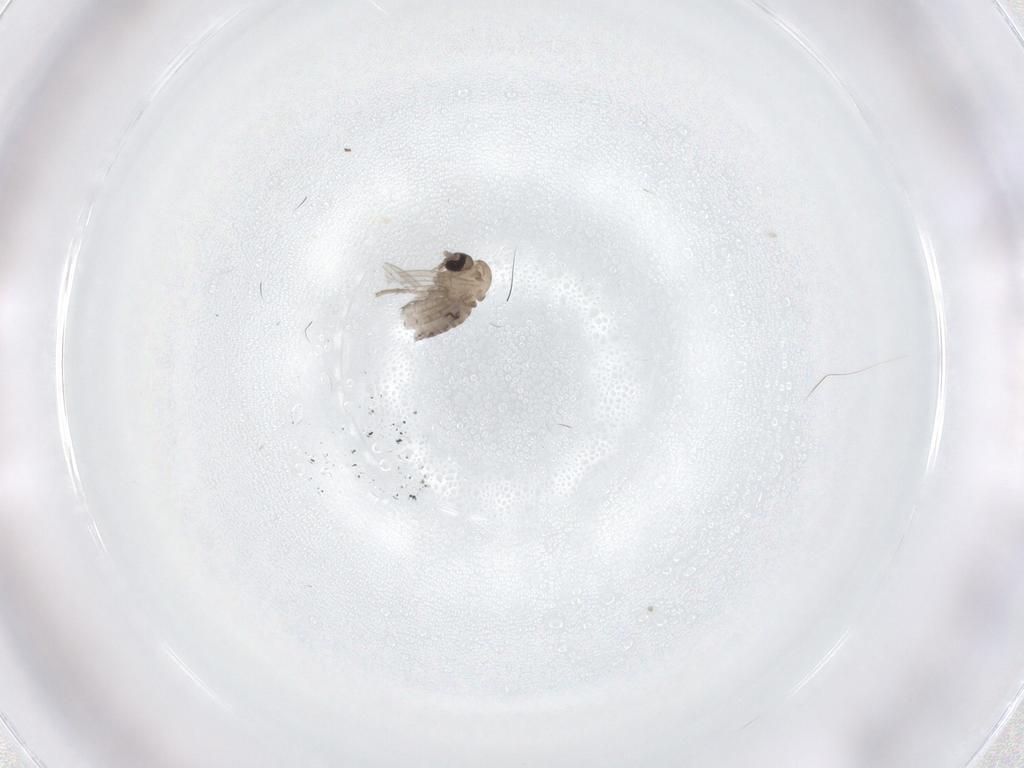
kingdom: Animalia
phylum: Arthropoda
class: Insecta
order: Diptera
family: Psychodidae
